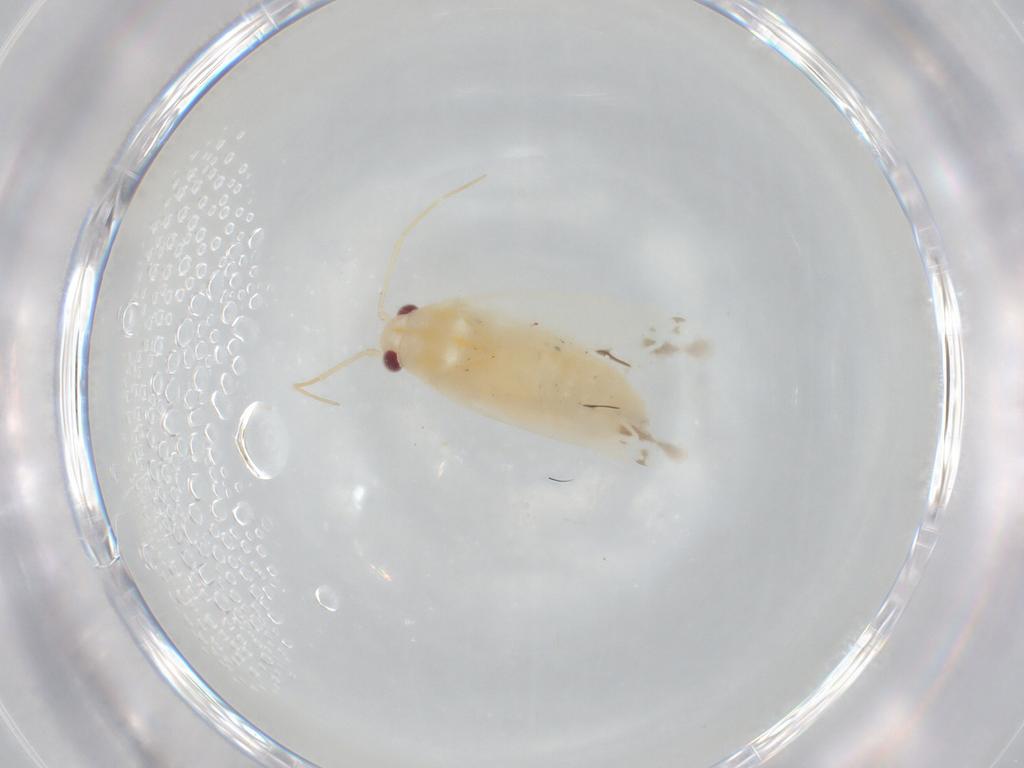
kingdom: Animalia
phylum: Arthropoda
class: Insecta
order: Hemiptera
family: Miridae
